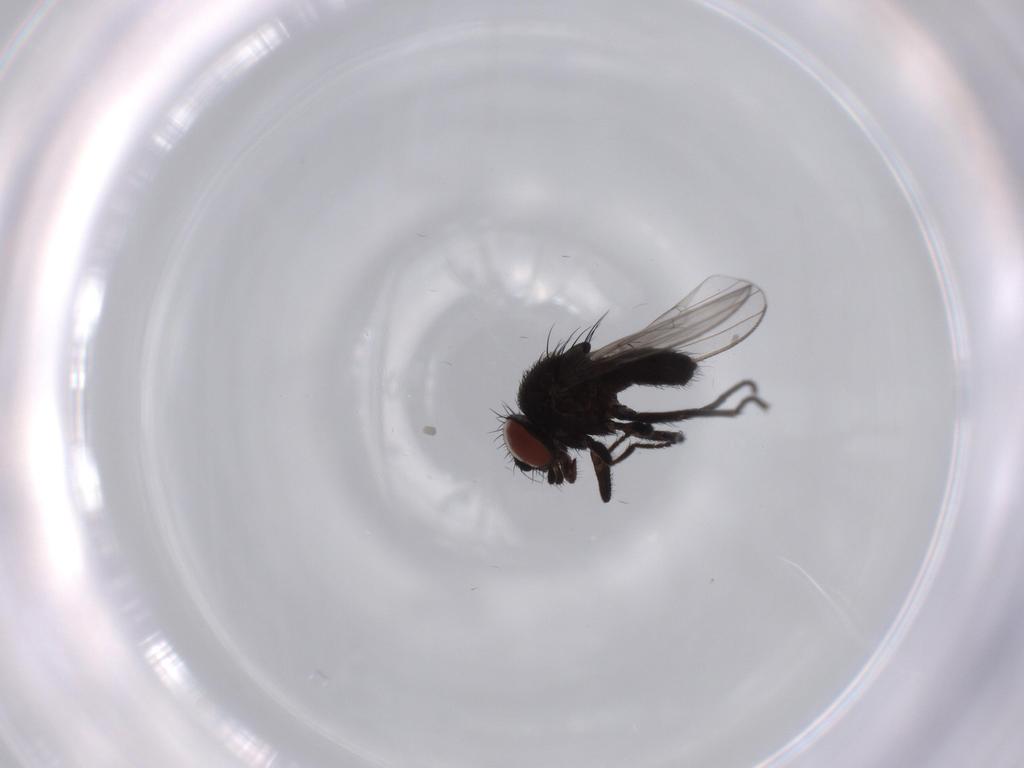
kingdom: Animalia
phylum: Arthropoda
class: Insecta
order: Diptera
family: Milichiidae
